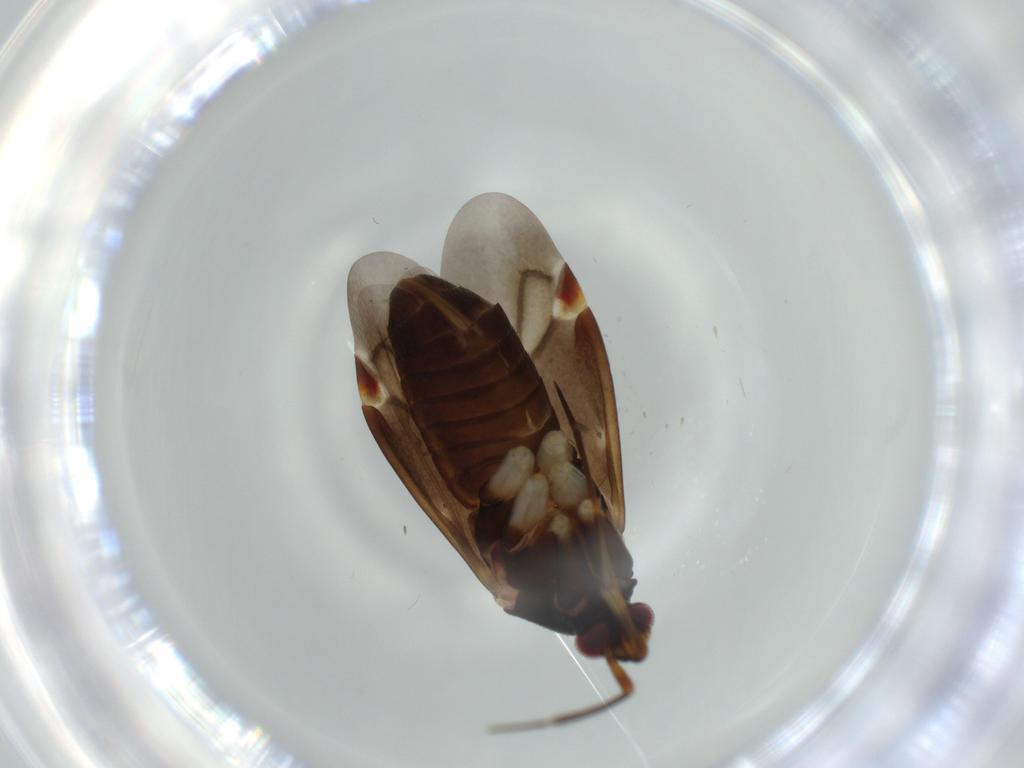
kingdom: Animalia
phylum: Arthropoda
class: Insecta
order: Hemiptera
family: Miridae
